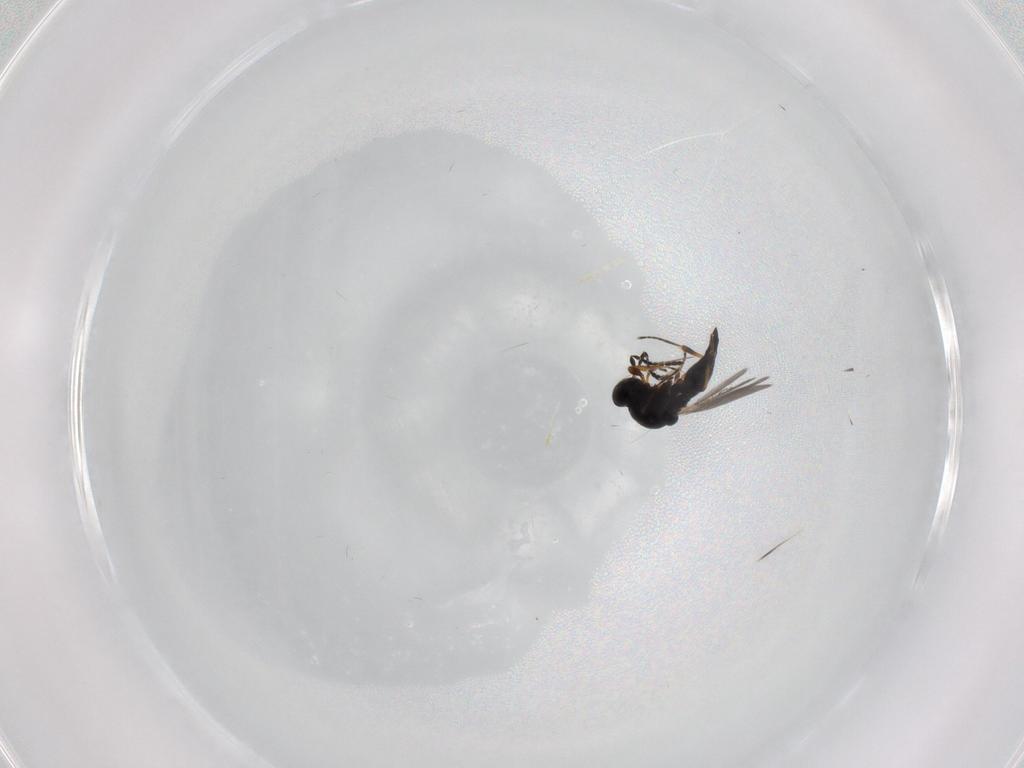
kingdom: Animalia
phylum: Arthropoda
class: Insecta
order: Hymenoptera
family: Platygastridae
